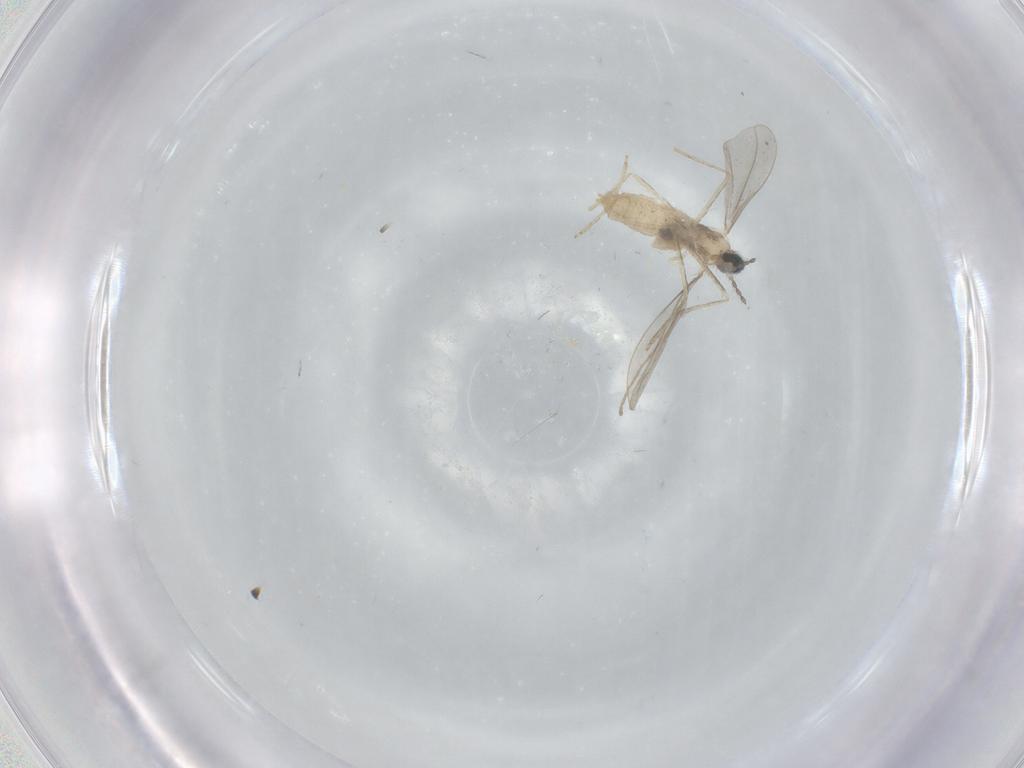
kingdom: Animalia
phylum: Arthropoda
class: Insecta
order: Diptera
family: Cecidomyiidae
